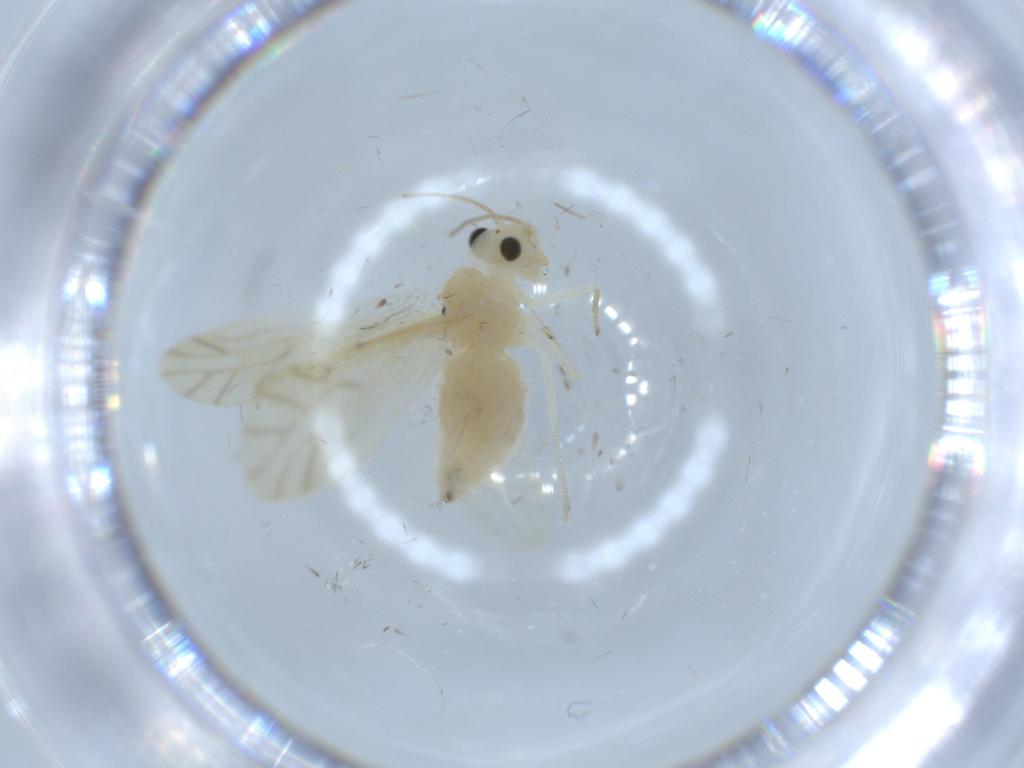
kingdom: Animalia
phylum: Arthropoda
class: Insecta
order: Psocodea
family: Caeciliusidae
